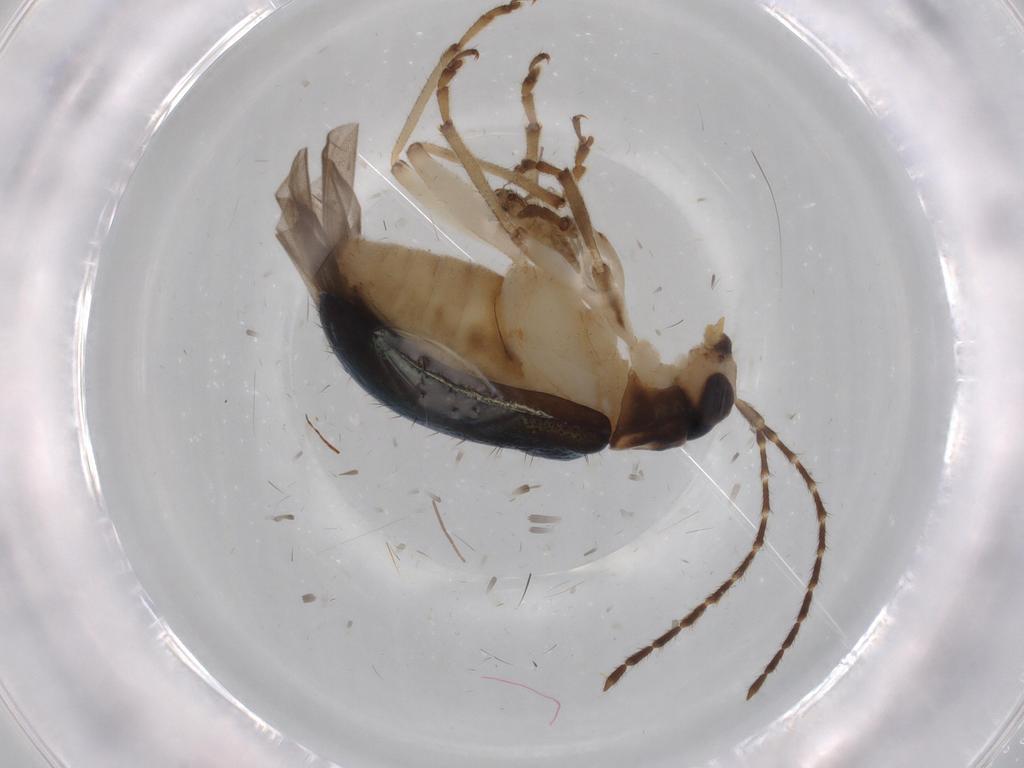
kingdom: Animalia
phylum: Arthropoda
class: Insecta
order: Coleoptera
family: Chrysomelidae
